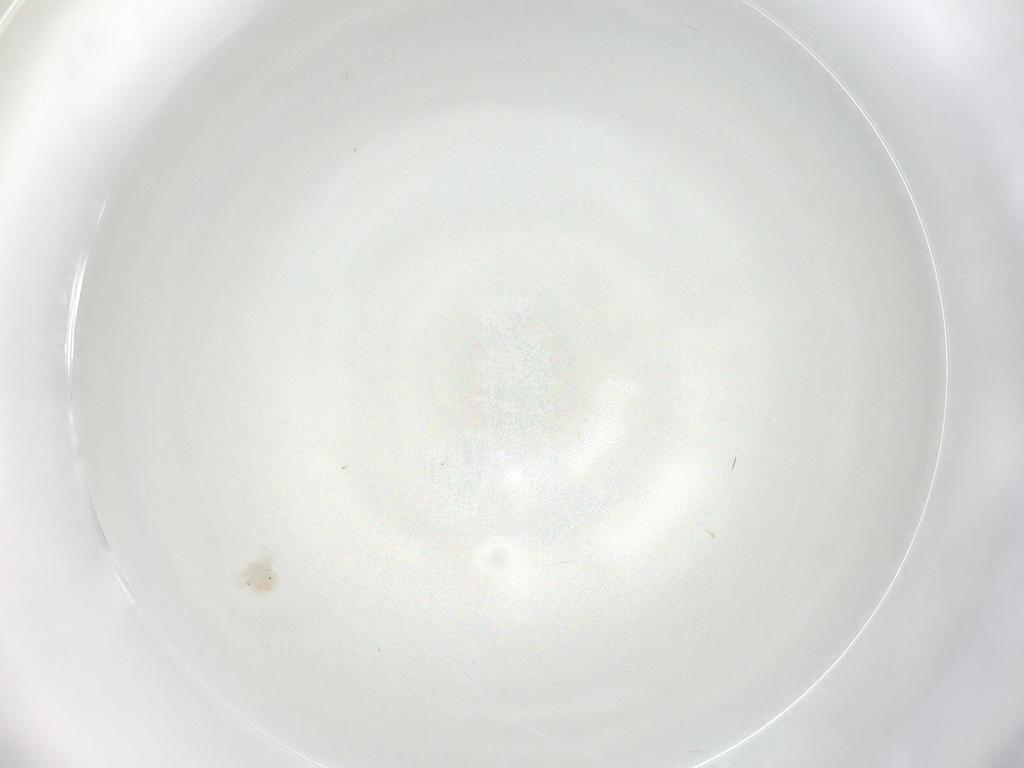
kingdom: Animalia
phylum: Arthropoda
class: Arachnida
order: Trombidiformes
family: Anystidae
